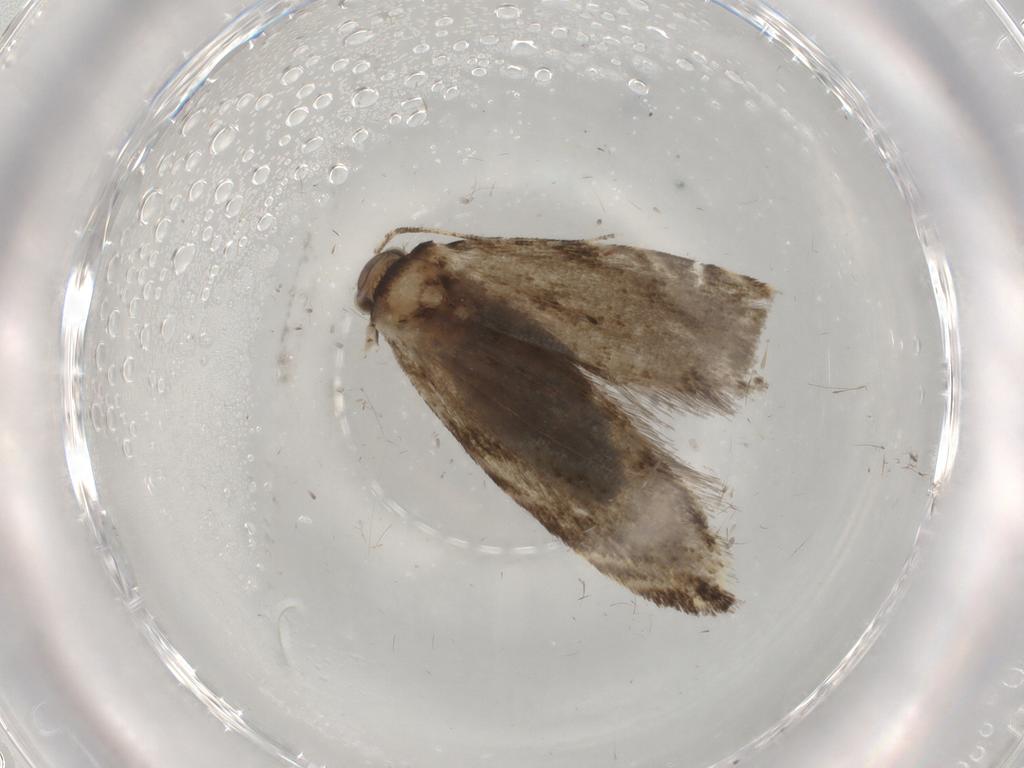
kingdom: Animalia
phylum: Arthropoda
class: Insecta
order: Lepidoptera
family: Tineidae
